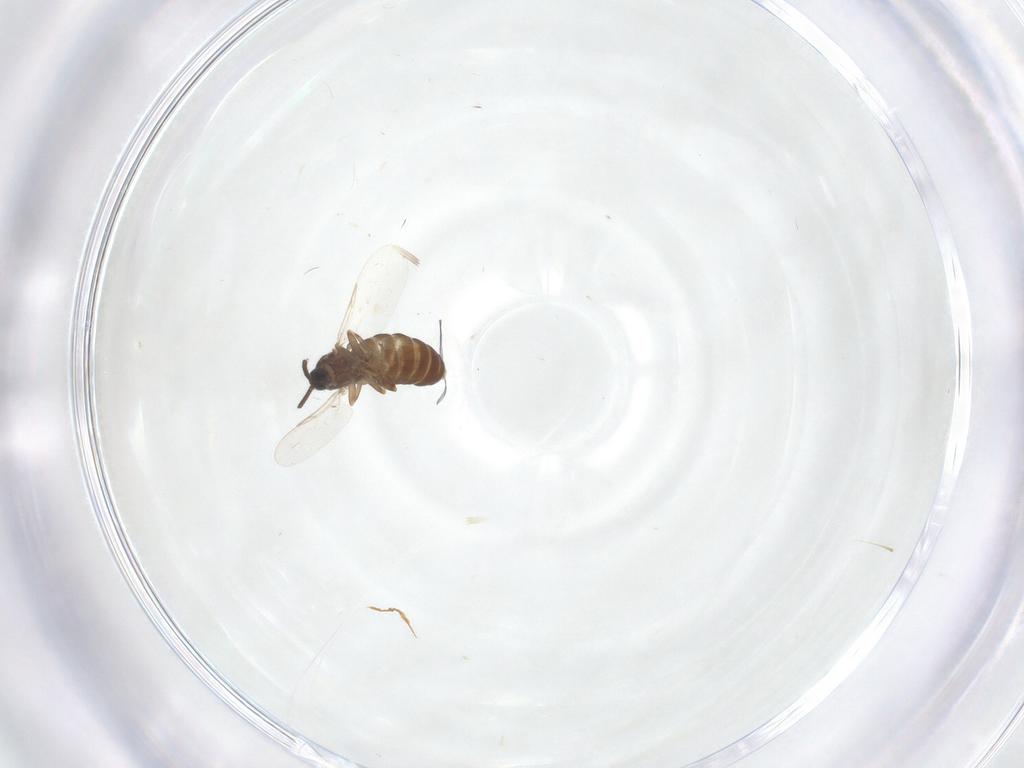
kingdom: Animalia
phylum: Arthropoda
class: Insecta
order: Diptera
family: Scatopsidae
